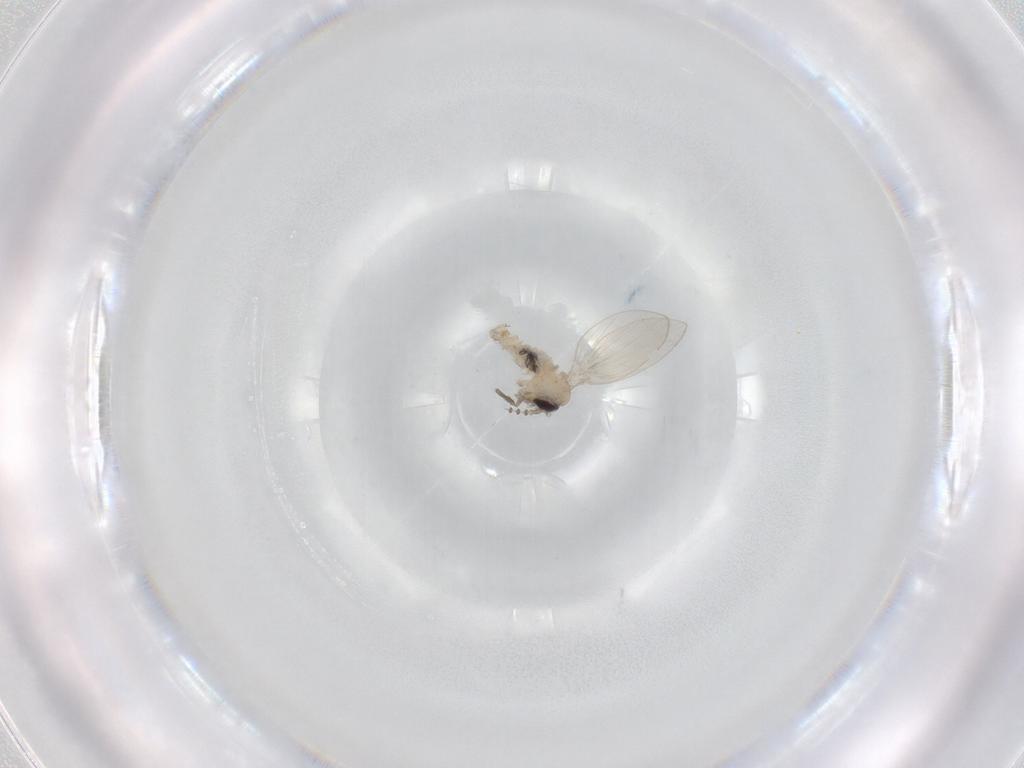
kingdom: Animalia
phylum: Arthropoda
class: Insecta
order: Diptera
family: Psychodidae
